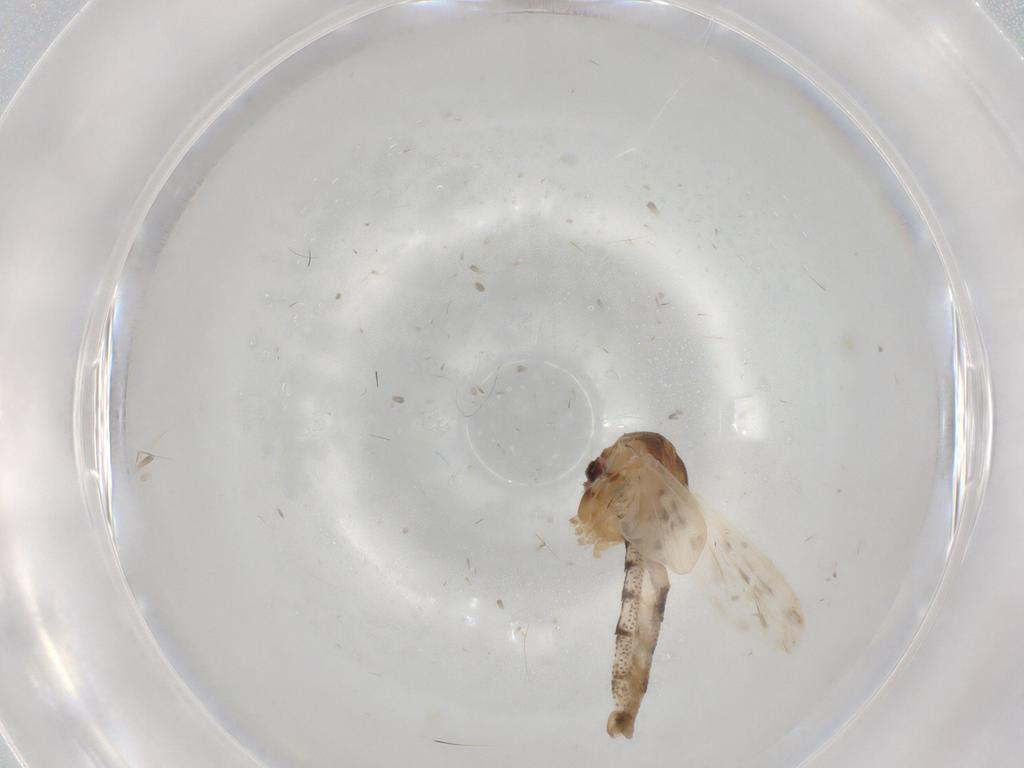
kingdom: Animalia
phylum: Arthropoda
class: Insecta
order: Diptera
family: Chaoboridae
